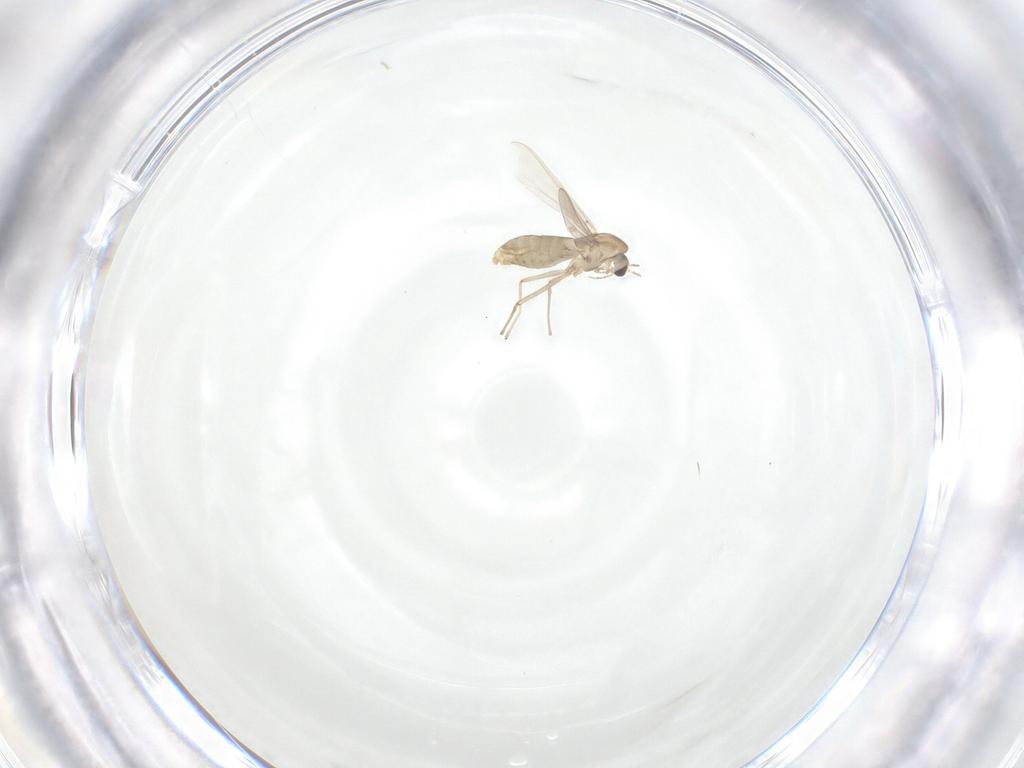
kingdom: Animalia
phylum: Arthropoda
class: Insecta
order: Diptera
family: Chironomidae
